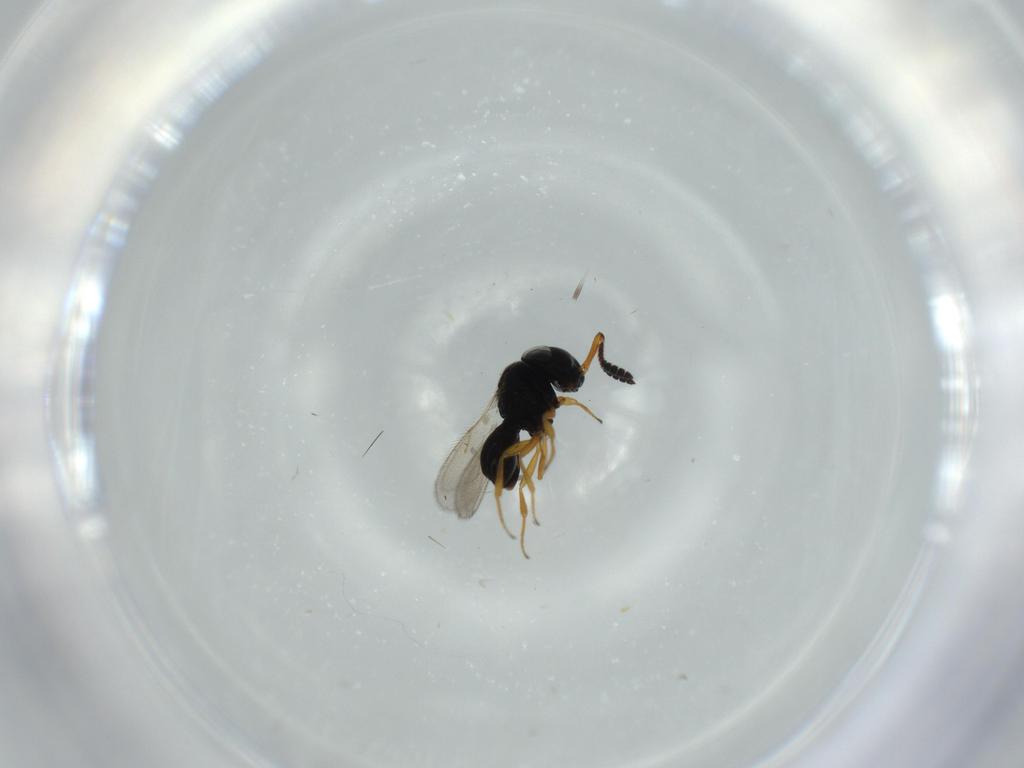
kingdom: Animalia
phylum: Arthropoda
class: Insecta
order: Hymenoptera
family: Scelionidae
